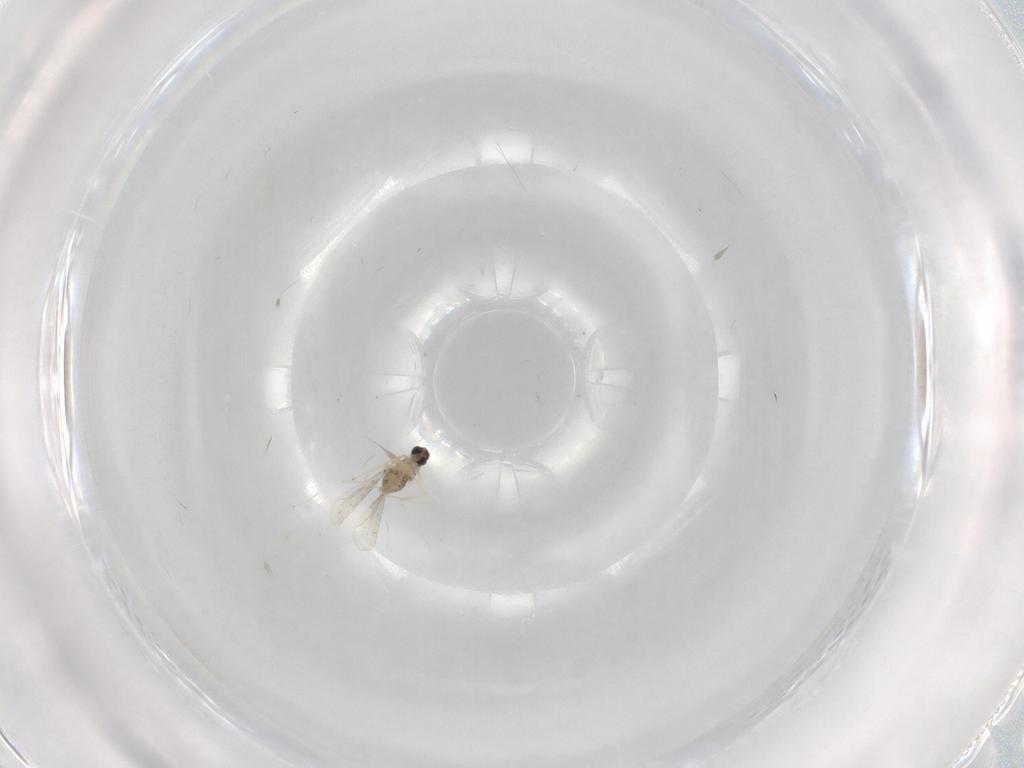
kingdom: Animalia
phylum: Arthropoda
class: Insecta
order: Diptera
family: Cecidomyiidae
